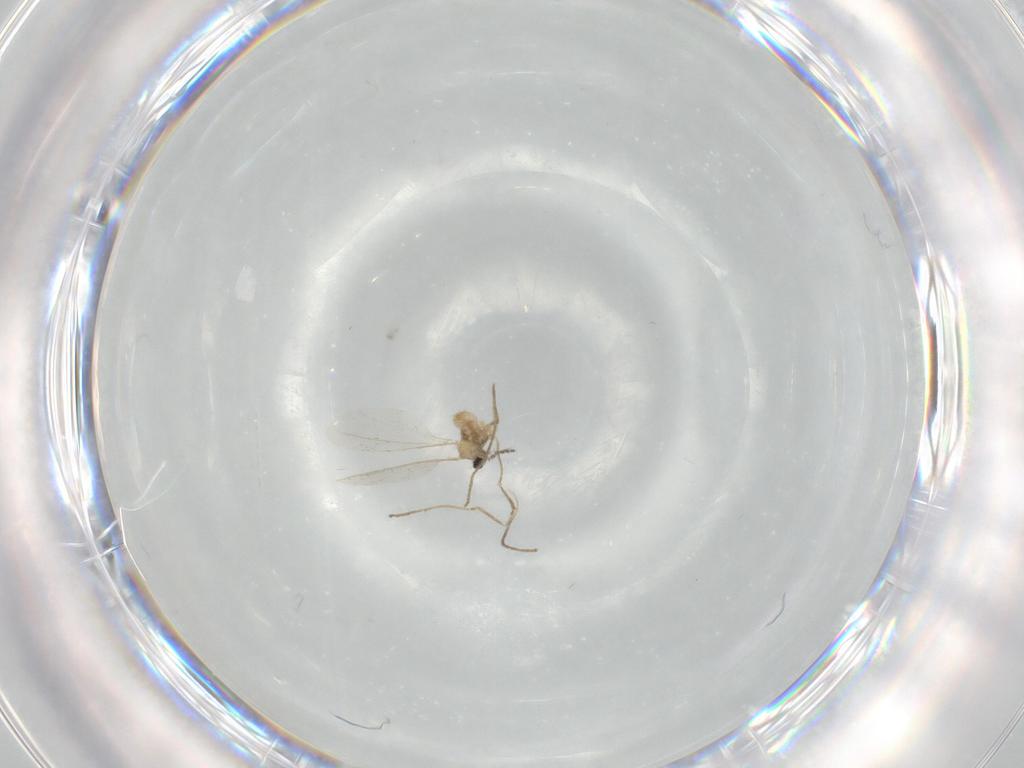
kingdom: Animalia
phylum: Arthropoda
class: Insecta
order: Diptera
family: Cecidomyiidae
